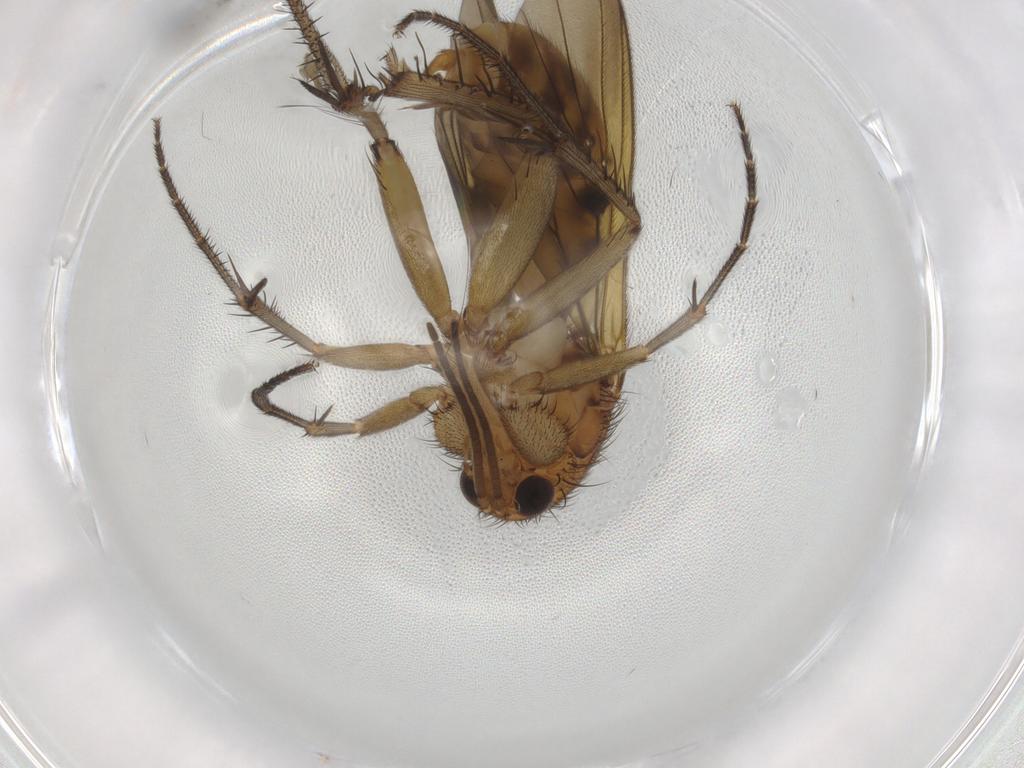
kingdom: Animalia
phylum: Arthropoda
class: Insecta
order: Diptera
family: Mycetophilidae
